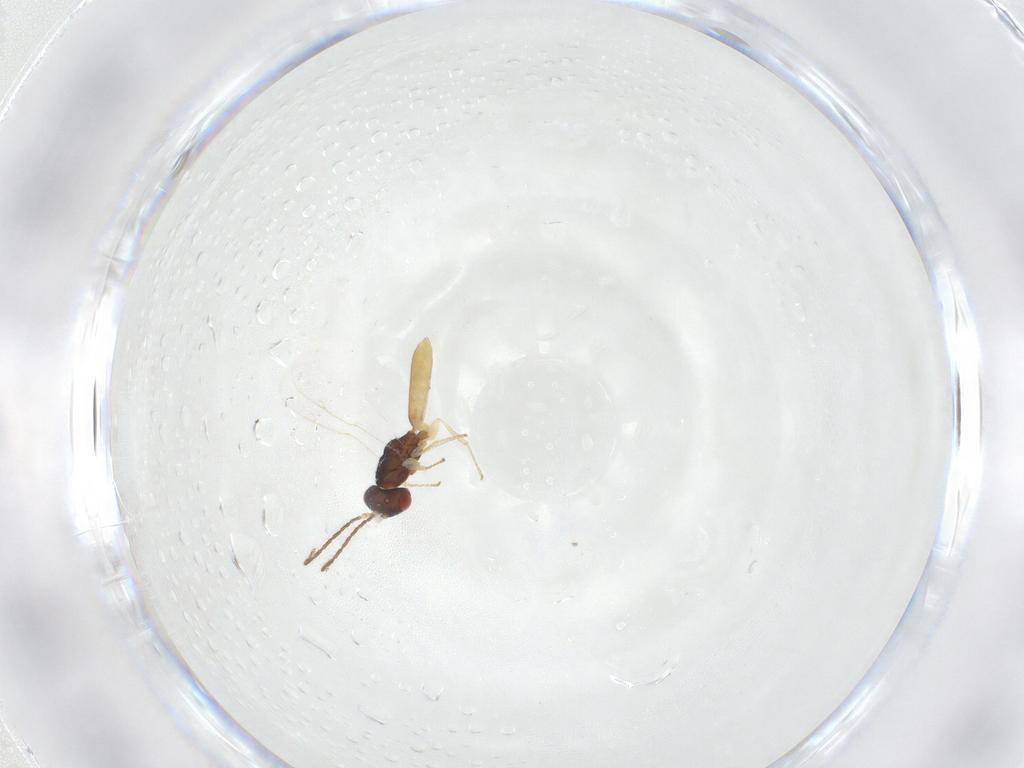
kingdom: Animalia
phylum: Arthropoda
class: Insecta
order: Hymenoptera
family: Pteromalidae
